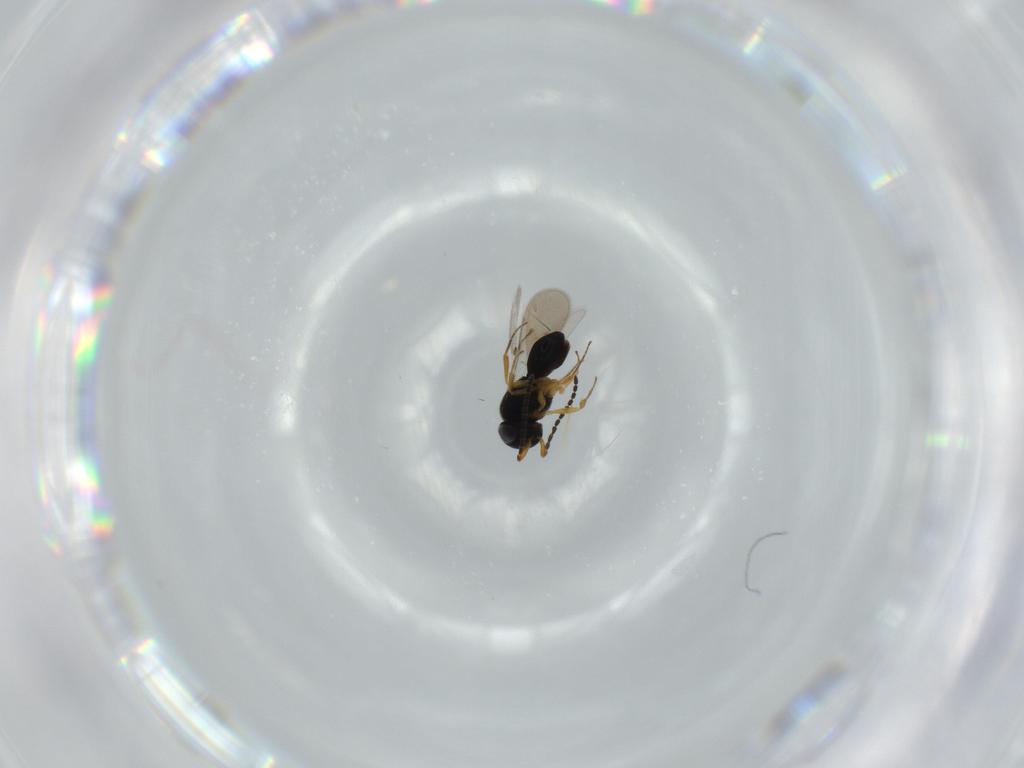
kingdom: Animalia
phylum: Arthropoda
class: Insecta
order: Hymenoptera
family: Scelionidae
